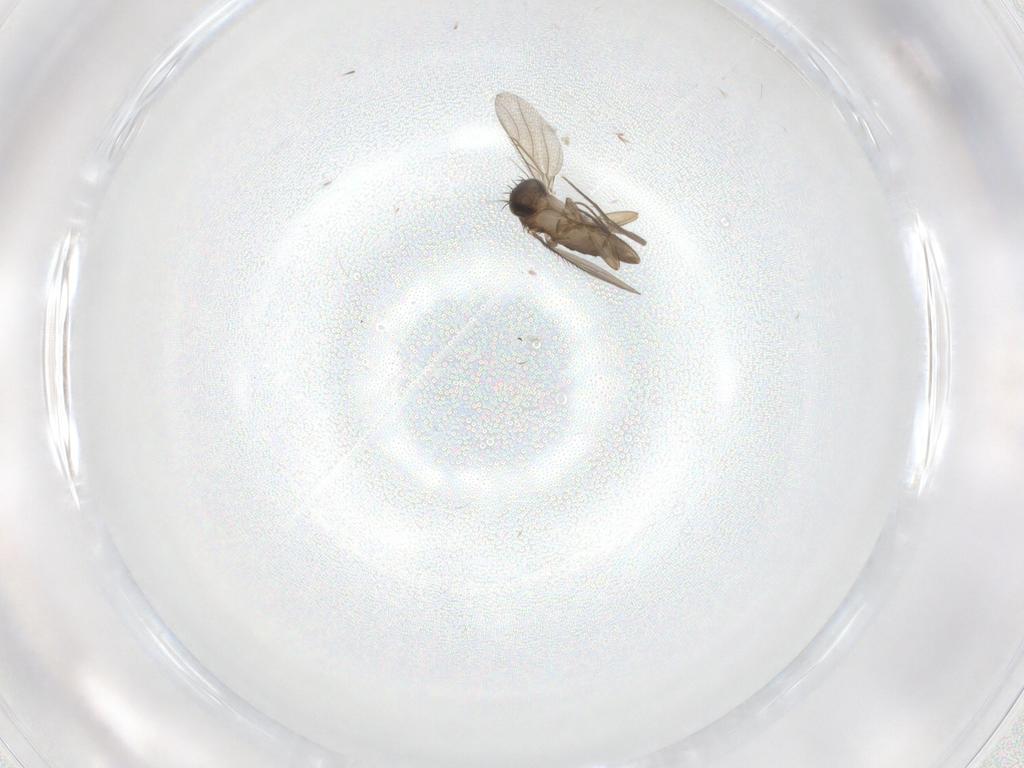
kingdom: Animalia
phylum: Arthropoda
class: Insecta
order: Diptera
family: Phoridae
